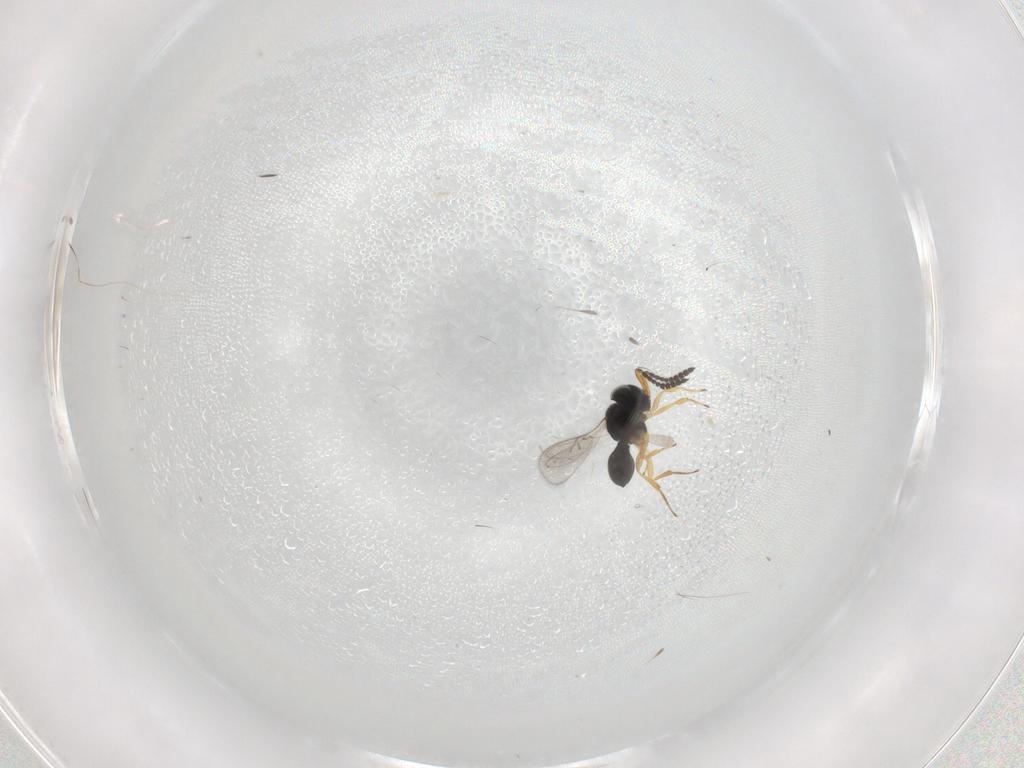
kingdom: Animalia
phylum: Arthropoda
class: Insecta
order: Hymenoptera
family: Scelionidae
